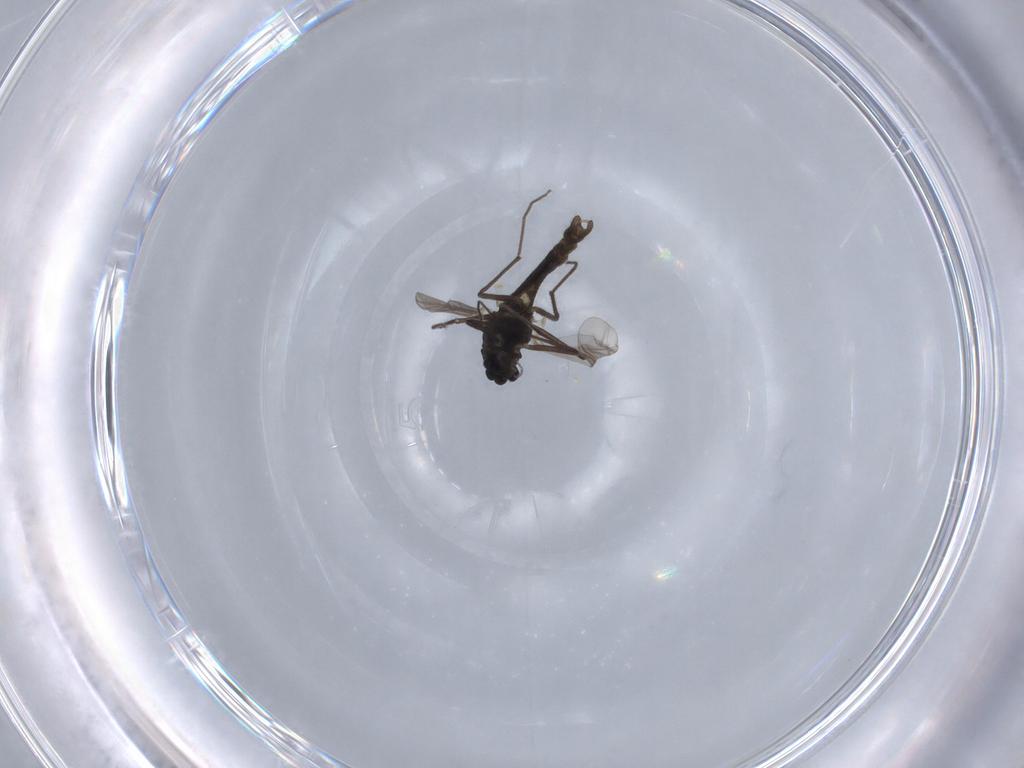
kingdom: Animalia
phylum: Arthropoda
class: Insecta
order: Diptera
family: Chironomidae
